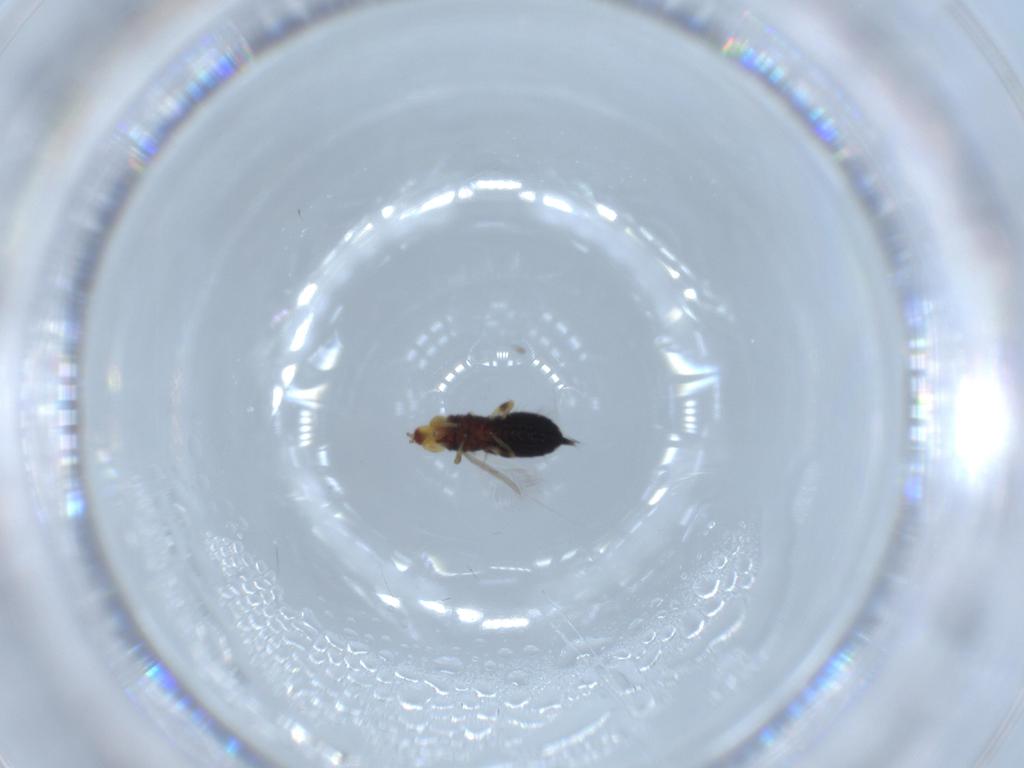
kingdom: Animalia
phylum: Arthropoda
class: Insecta
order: Thysanoptera
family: Phlaeothripidae
